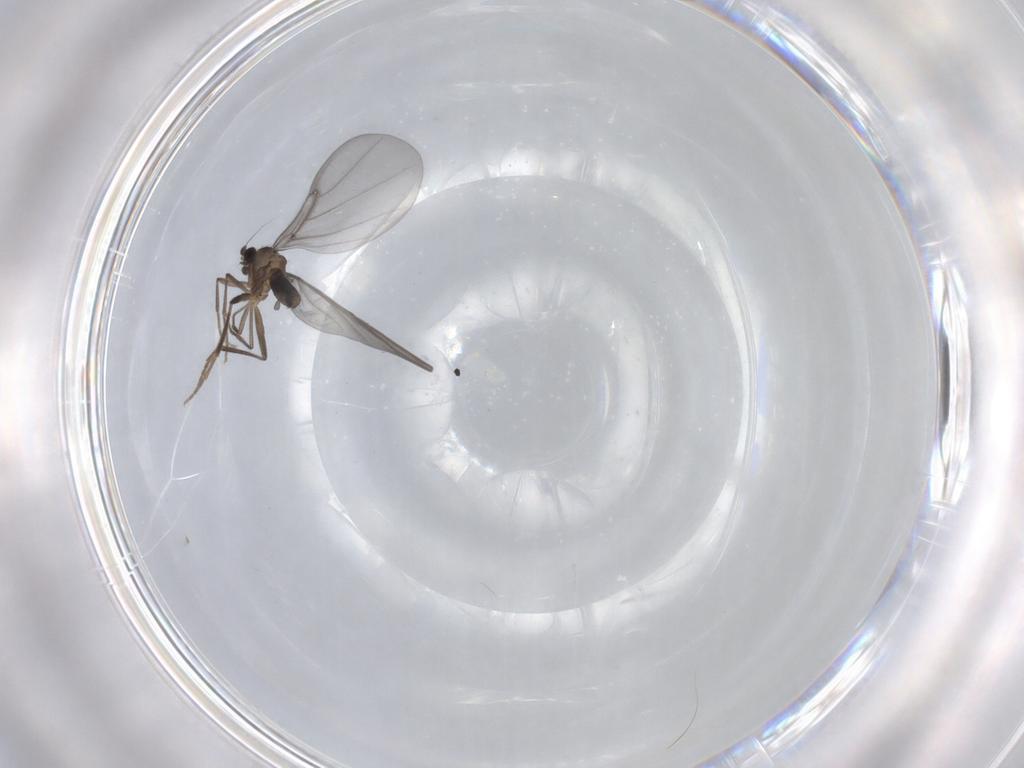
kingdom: Animalia
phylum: Arthropoda
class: Insecta
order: Diptera
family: Phoridae
